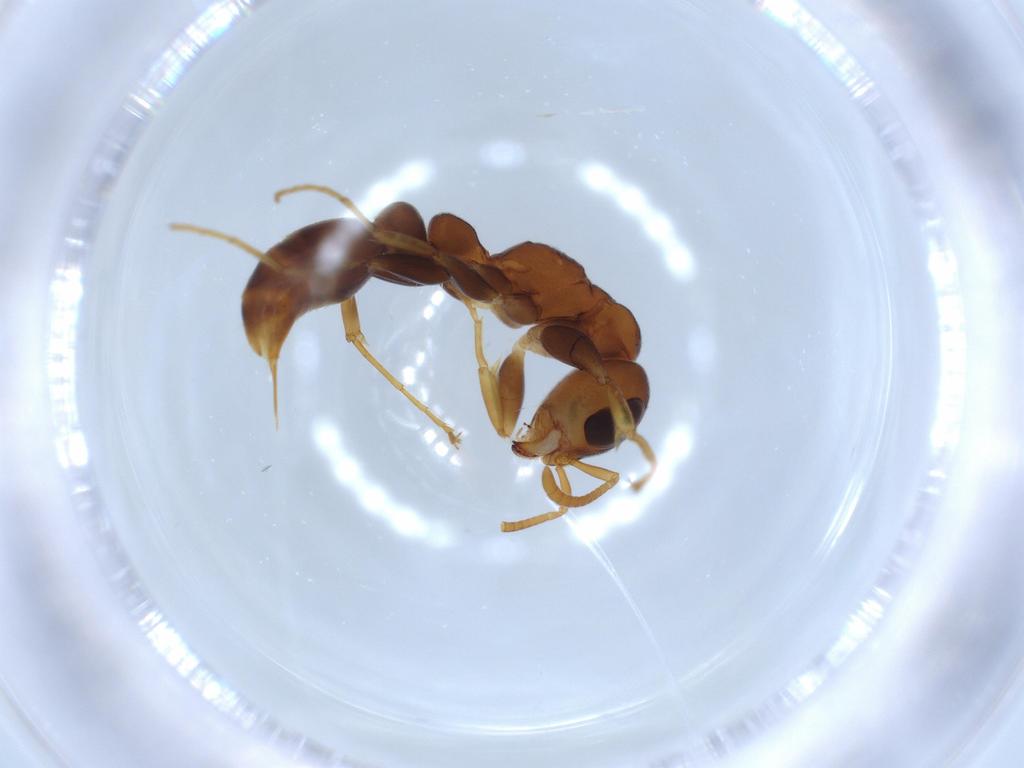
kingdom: Animalia
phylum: Arthropoda
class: Insecta
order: Hymenoptera
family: Formicidae
